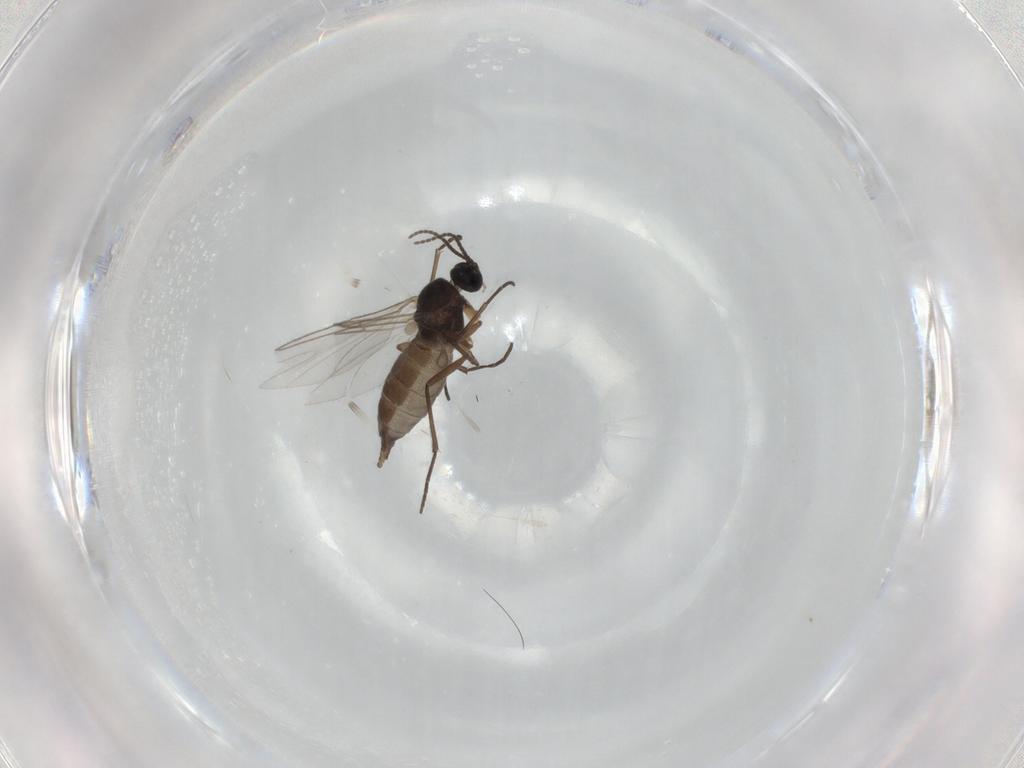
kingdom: Animalia
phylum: Arthropoda
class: Insecta
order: Diptera
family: Sciaridae
